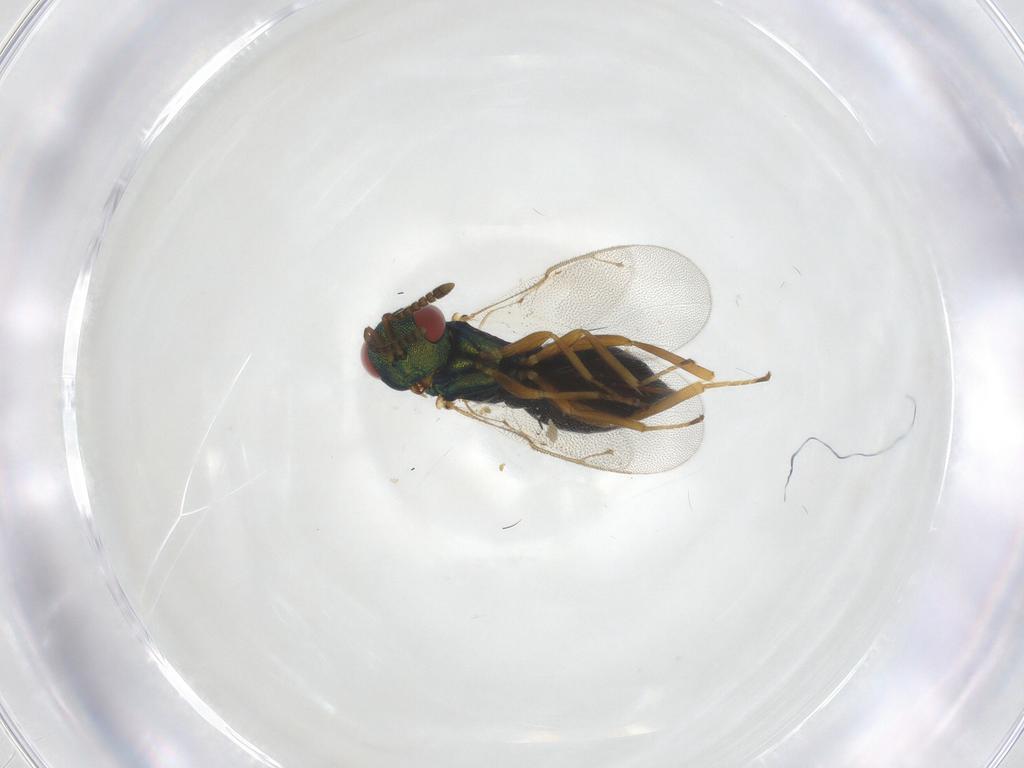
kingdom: Animalia
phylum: Arthropoda
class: Insecta
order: Hymenoptera
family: Pteromalidae
